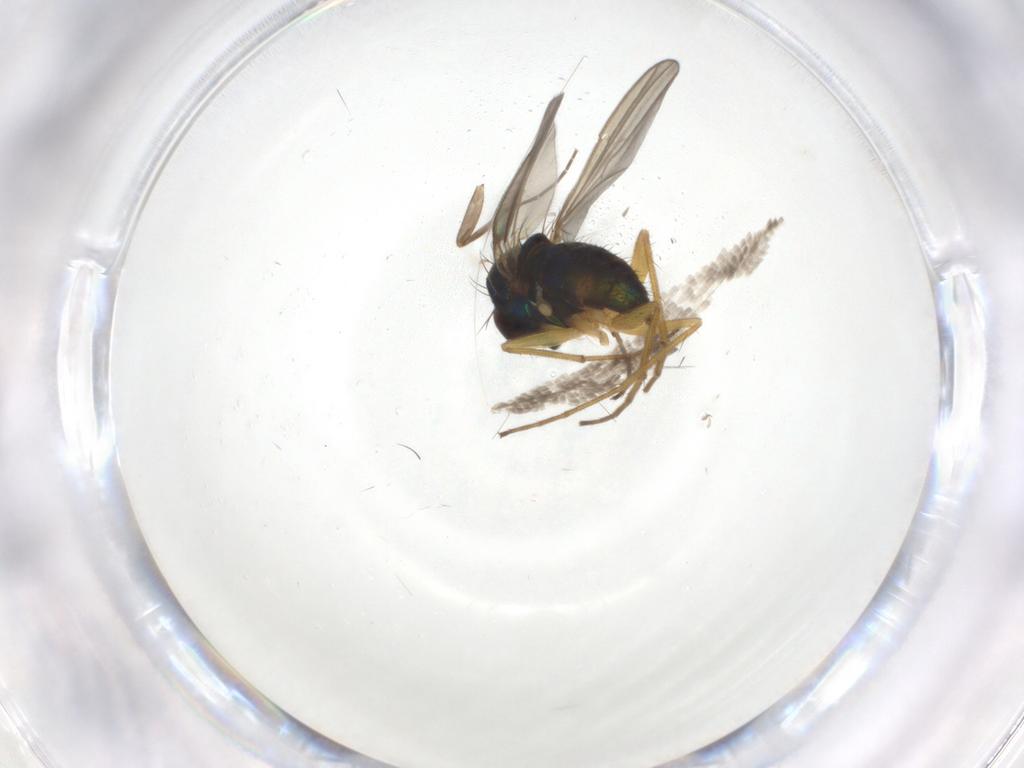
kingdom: Animalia
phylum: Arthropoda
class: Insecta
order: Diptera
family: Dolichopodidae
